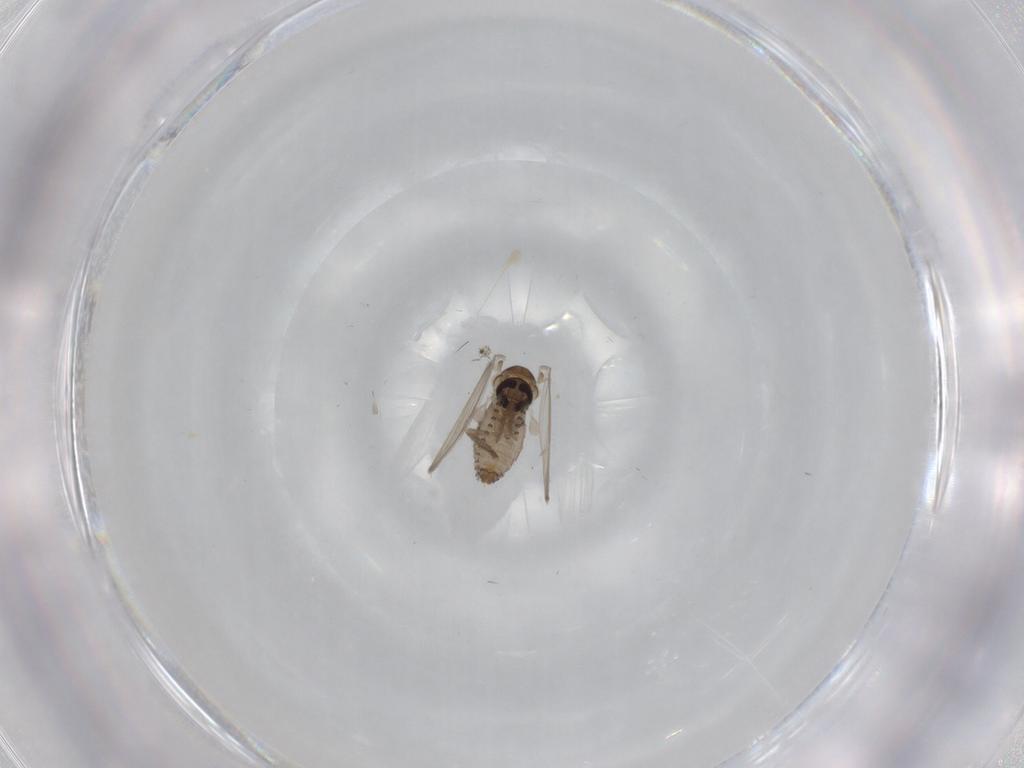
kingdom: Animalia
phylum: Arthropoda
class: Insecta
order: Diptera
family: Psychodidae
